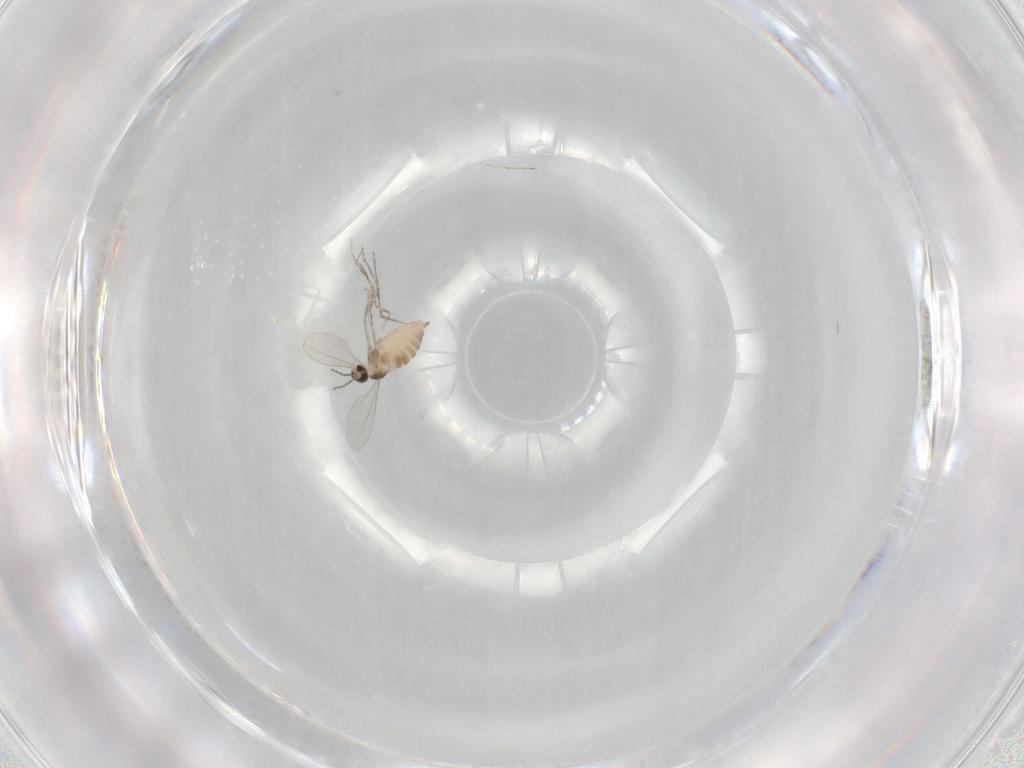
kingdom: Animalia
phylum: Arthropoda
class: Insecta
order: Diptera
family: Cecidomyiidae
